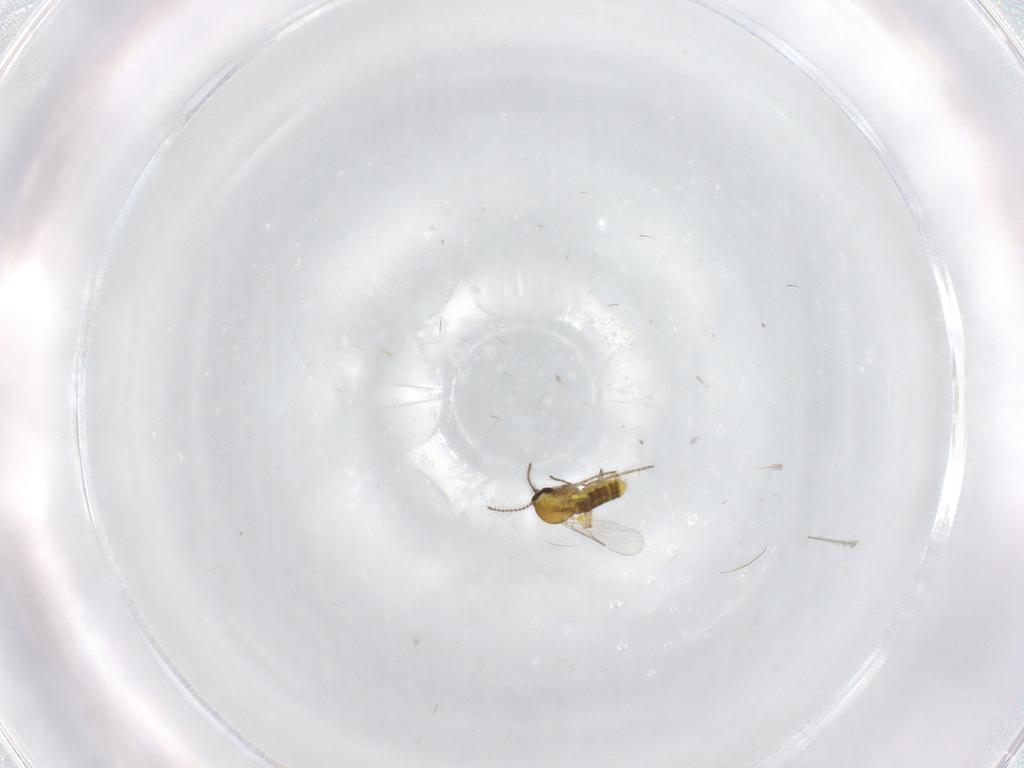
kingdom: Animalia
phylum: Arthropoda
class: Insecta
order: Diptera
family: Ceratopogonidae
